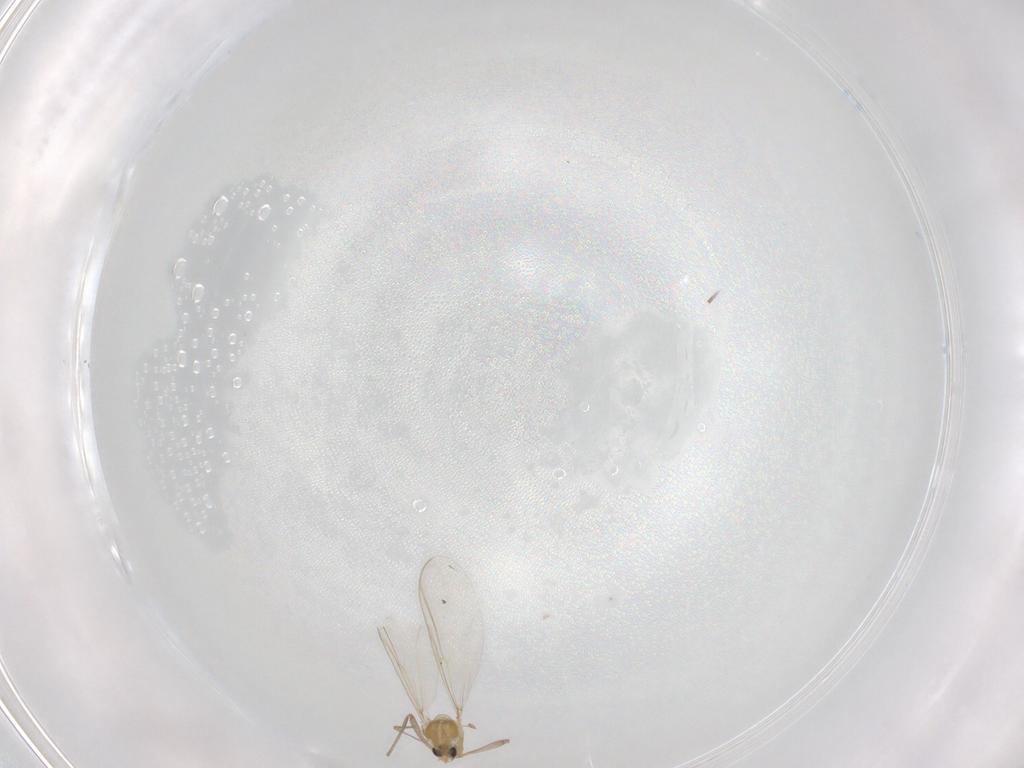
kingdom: Animalia
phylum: Arthropoda
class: Insecta
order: Diptera
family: Chironomidae
